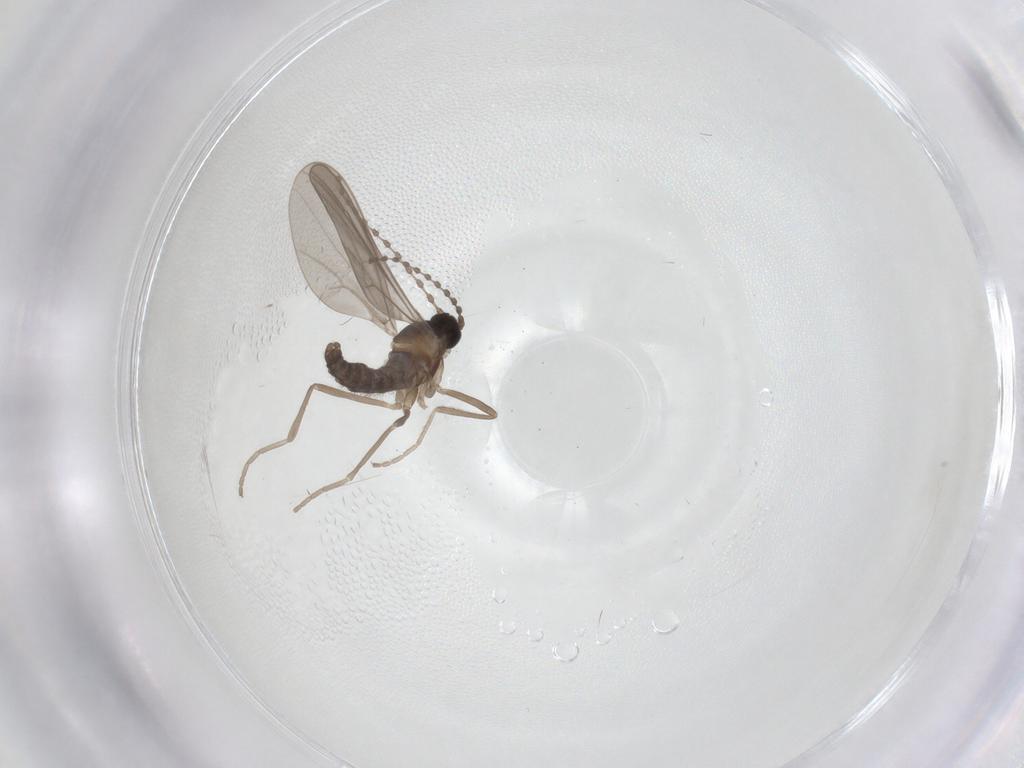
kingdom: Animalia
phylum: Arthropoda
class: Insecta
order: Diptera
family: Cecidomyiidae
